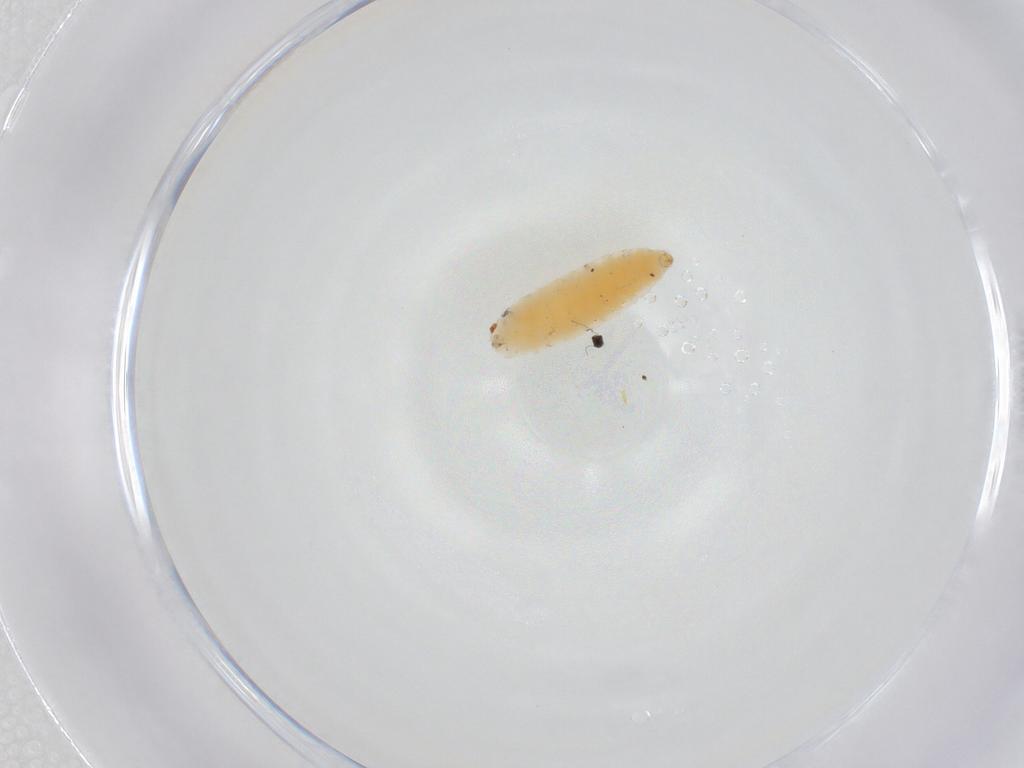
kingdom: Animalia
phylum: Arthropoda
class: Insecta
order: Diptera
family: Cecidomyiidae
